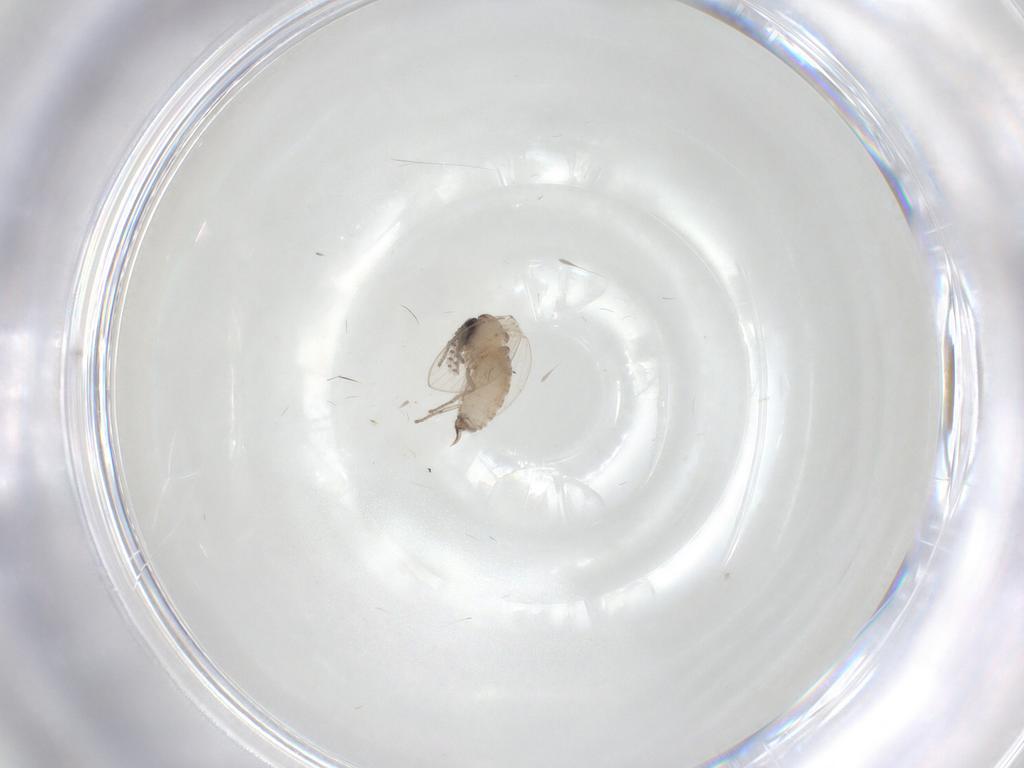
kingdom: Animalia
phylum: Arthropoda
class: Insecta
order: Diptera
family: Psychodidae
